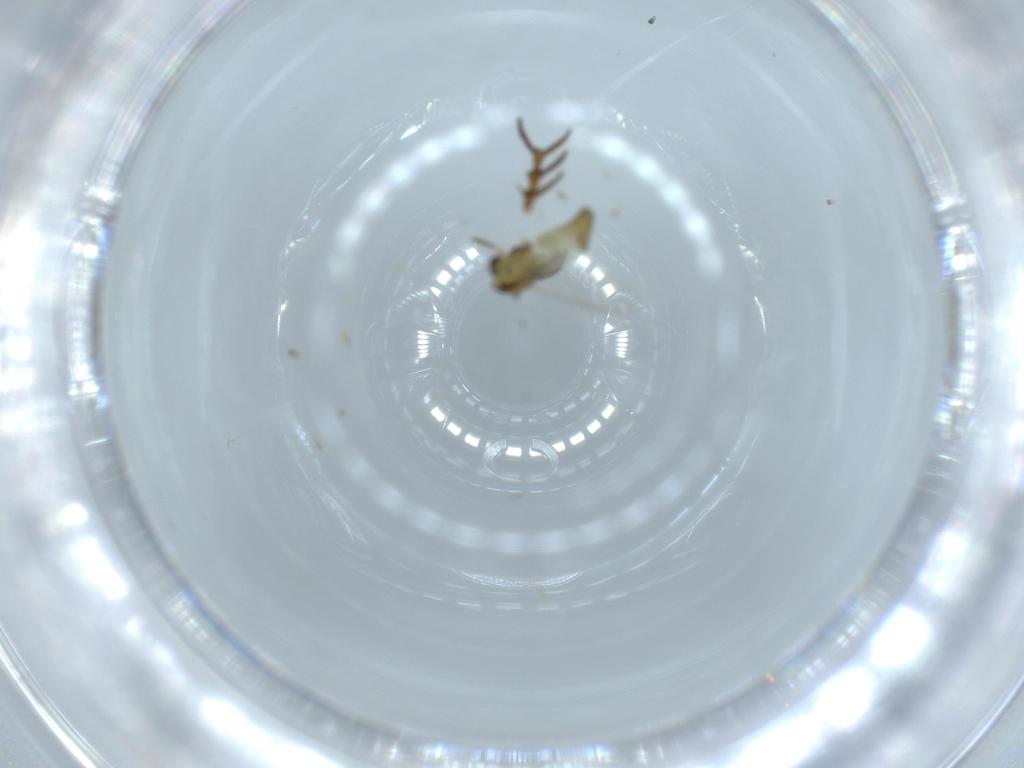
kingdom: Animalia
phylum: Arthropoda
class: Insecta
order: Diptera
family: Chironomidae
